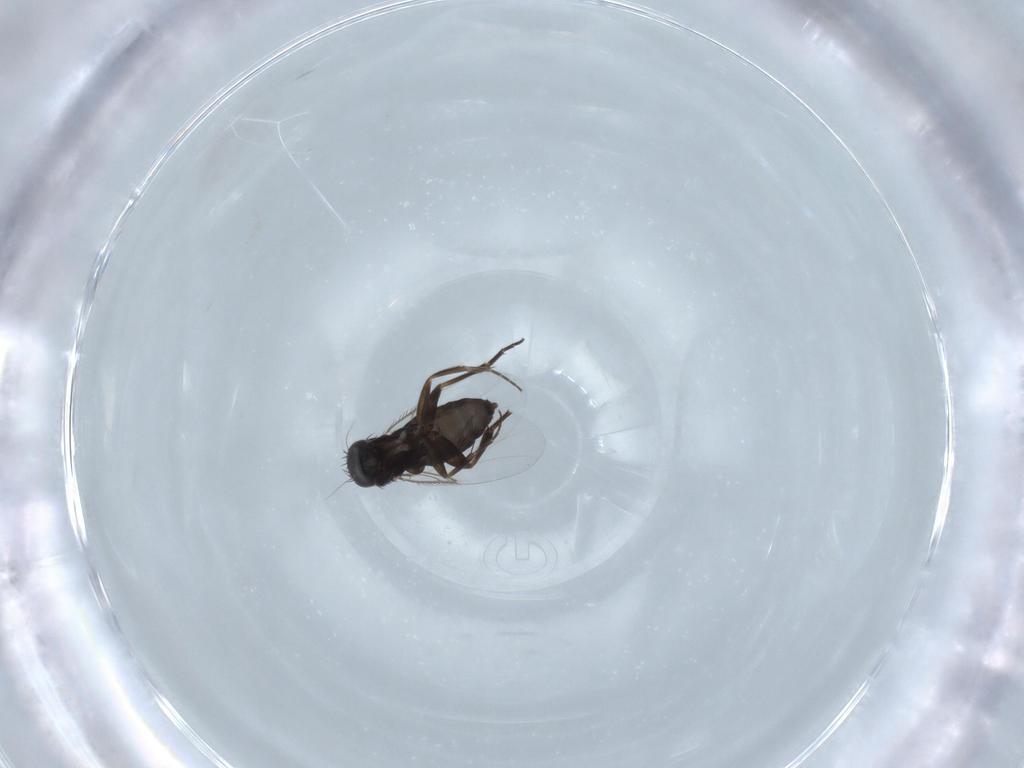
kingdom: Animalia
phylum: Arthropoda
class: Insecta
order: Diptera
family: Phoridae
